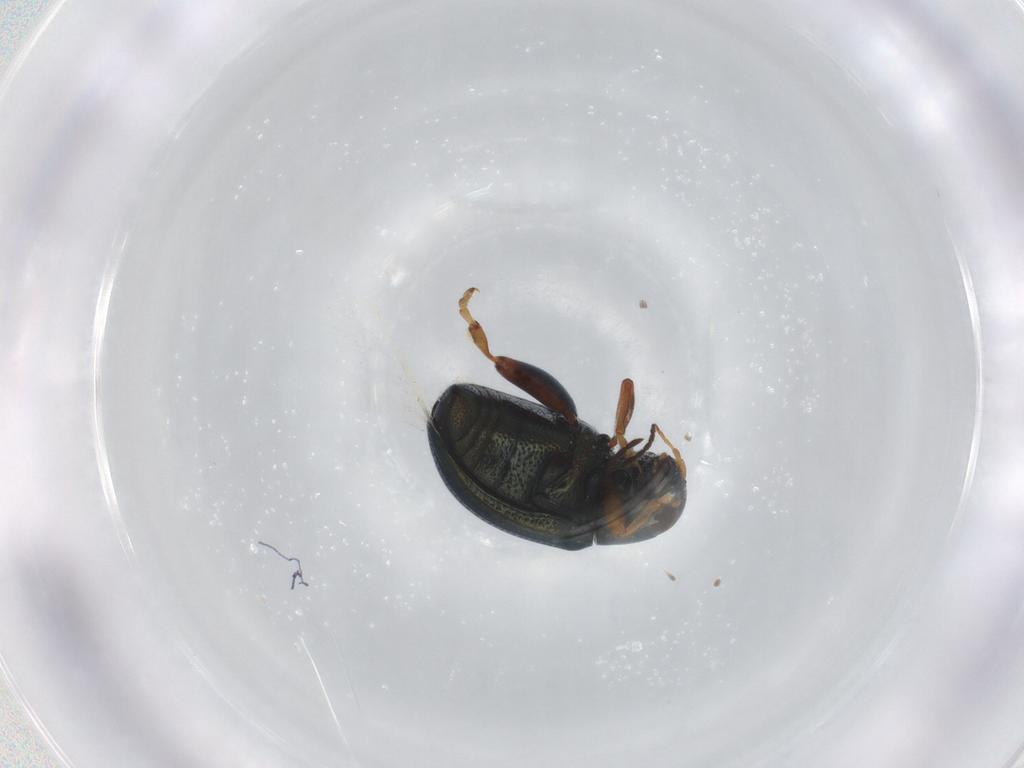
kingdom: Animalia
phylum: Arthropoda
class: Insecta
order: Coleoptera
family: Chrysomelidae
